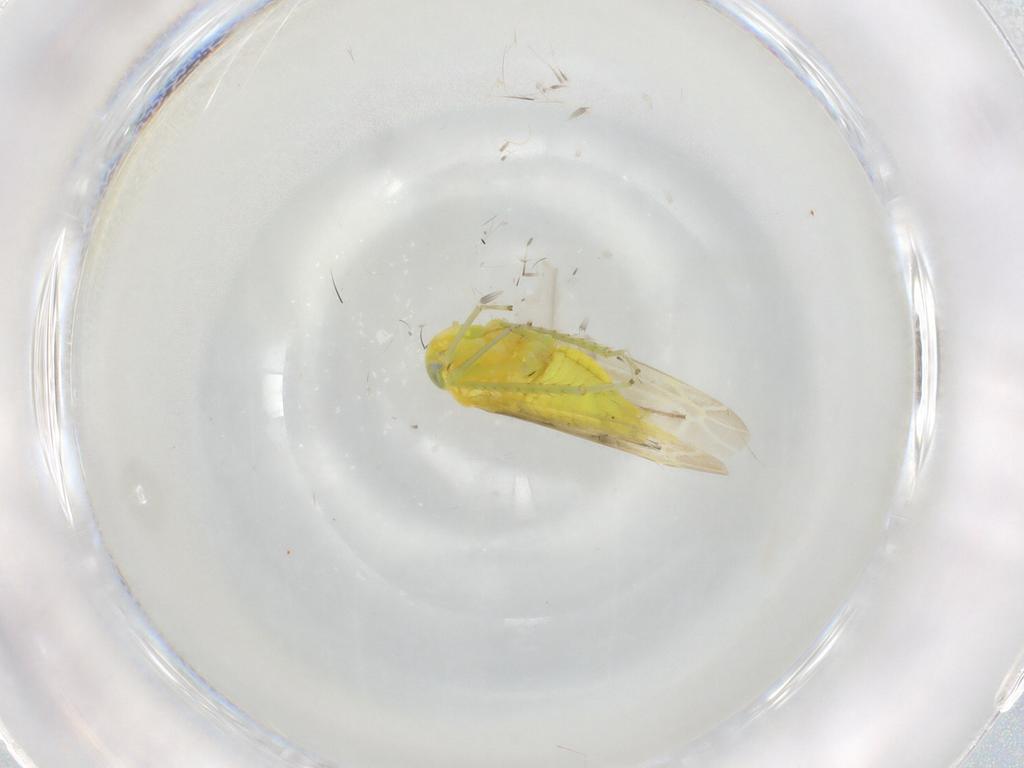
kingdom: Animalia
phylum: Arthropoda
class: Insecta
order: Hemiptera
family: Cicadellidae
